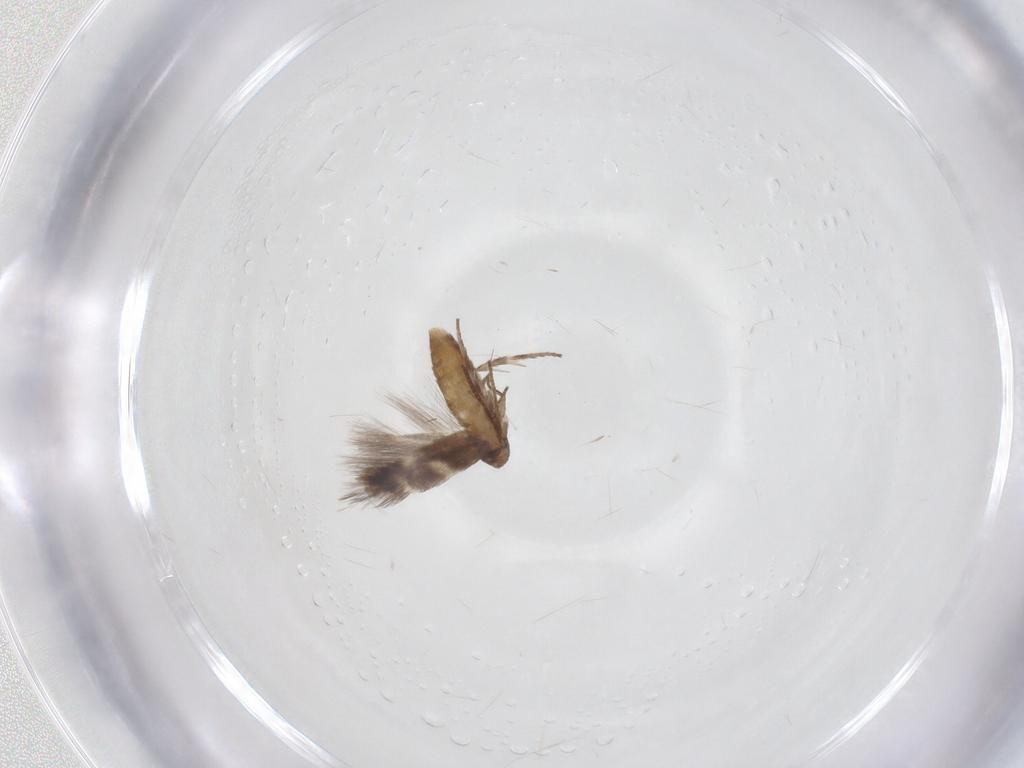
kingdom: Animalia
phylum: Arthropoda
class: Insecta
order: Lepidoptera
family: Lyonetiidae
